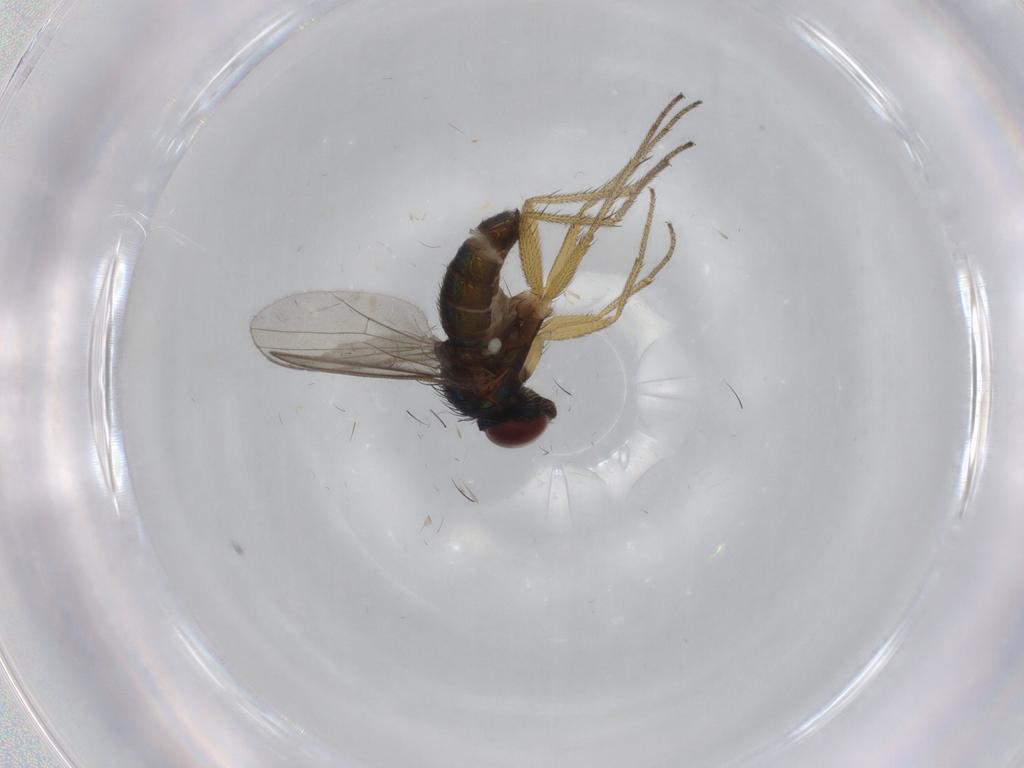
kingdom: Animalia
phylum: Arthropoda
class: Insecta
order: Diptera
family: Dolichopodidae
